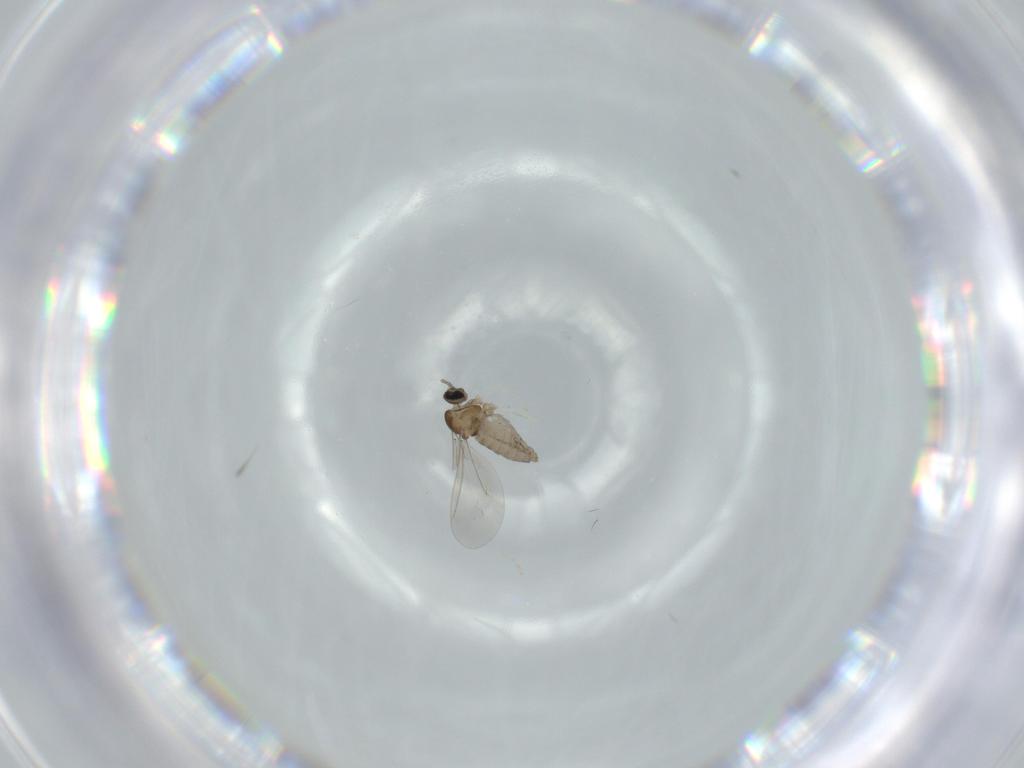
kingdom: Animalia
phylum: Arthropoda
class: Insecta
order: Diptera
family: Cecidomyiidae
